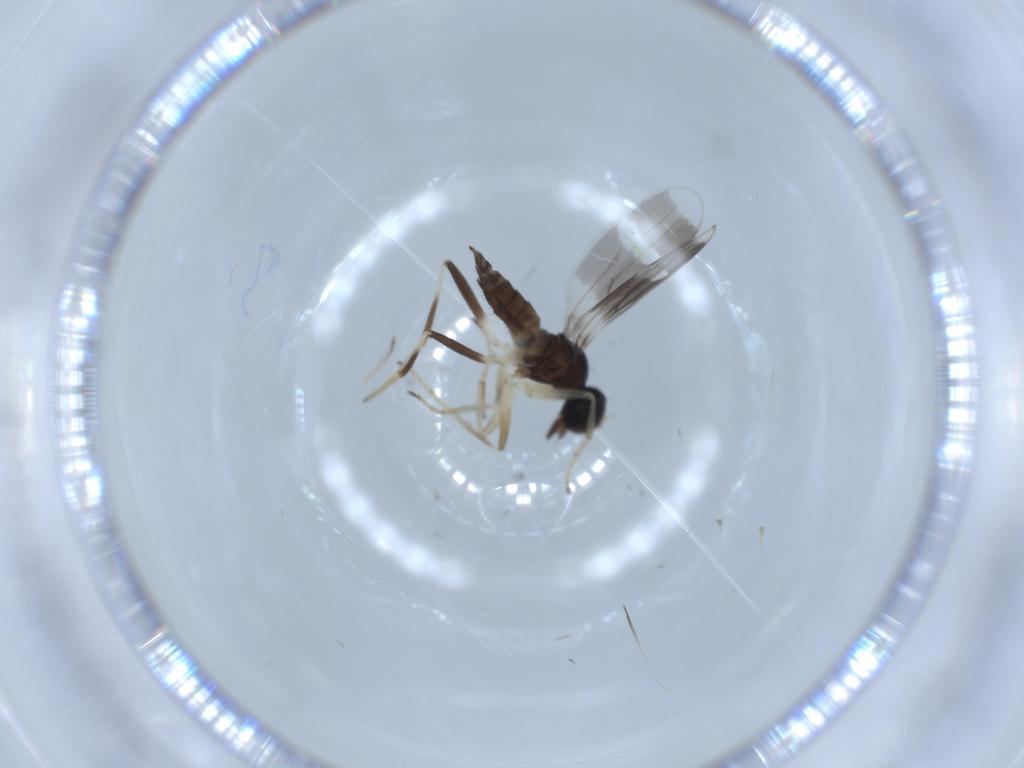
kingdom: Animalia
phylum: Arthropoda
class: Insecta
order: Diptera
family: Hybotidae
